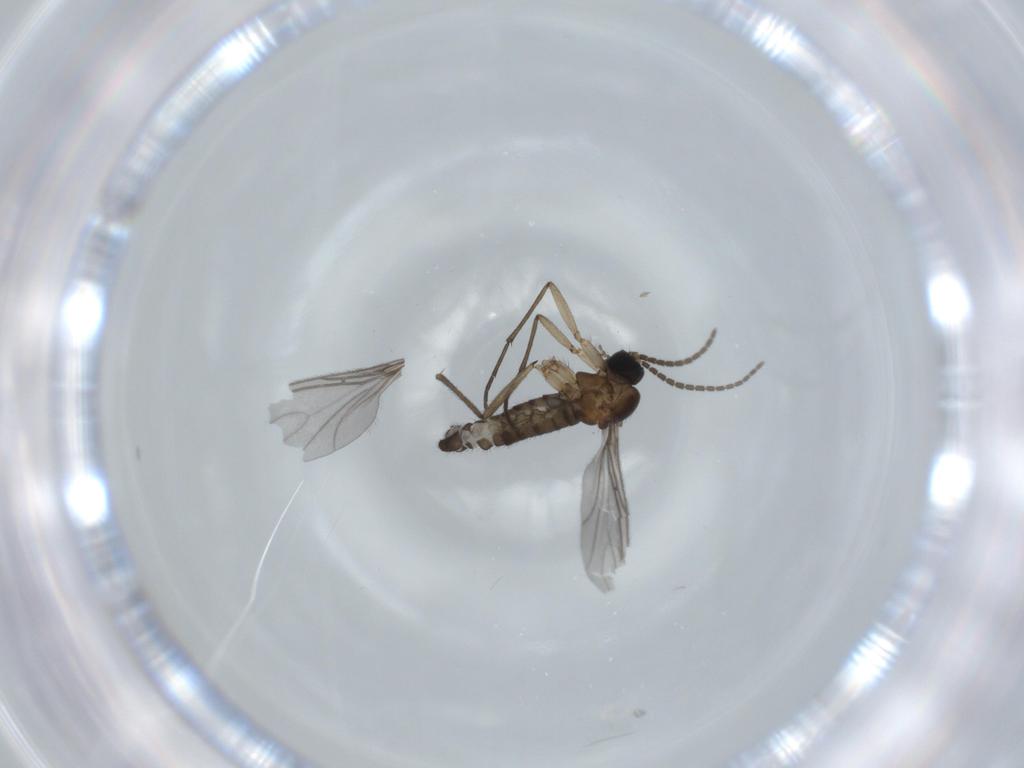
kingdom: Animalia
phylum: Arthropoda
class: Insecta
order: Diptera
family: Sciaridae
